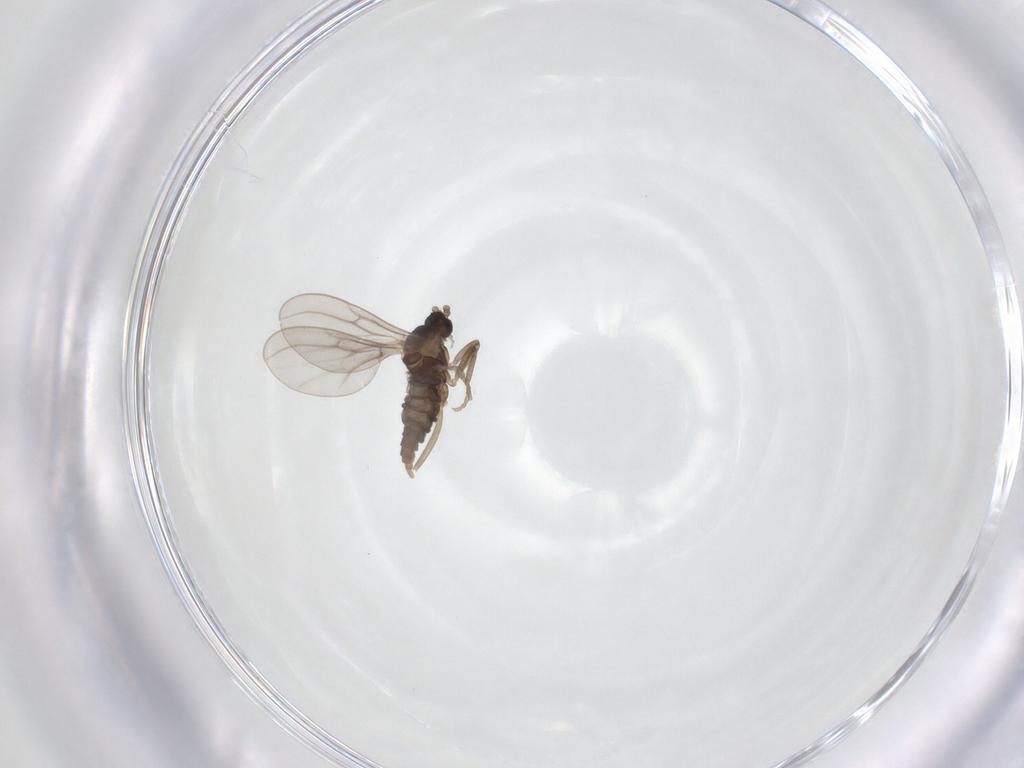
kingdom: Animalia
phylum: Arthropoda
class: Insecta
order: Diptera
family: Cecidomyiidae
